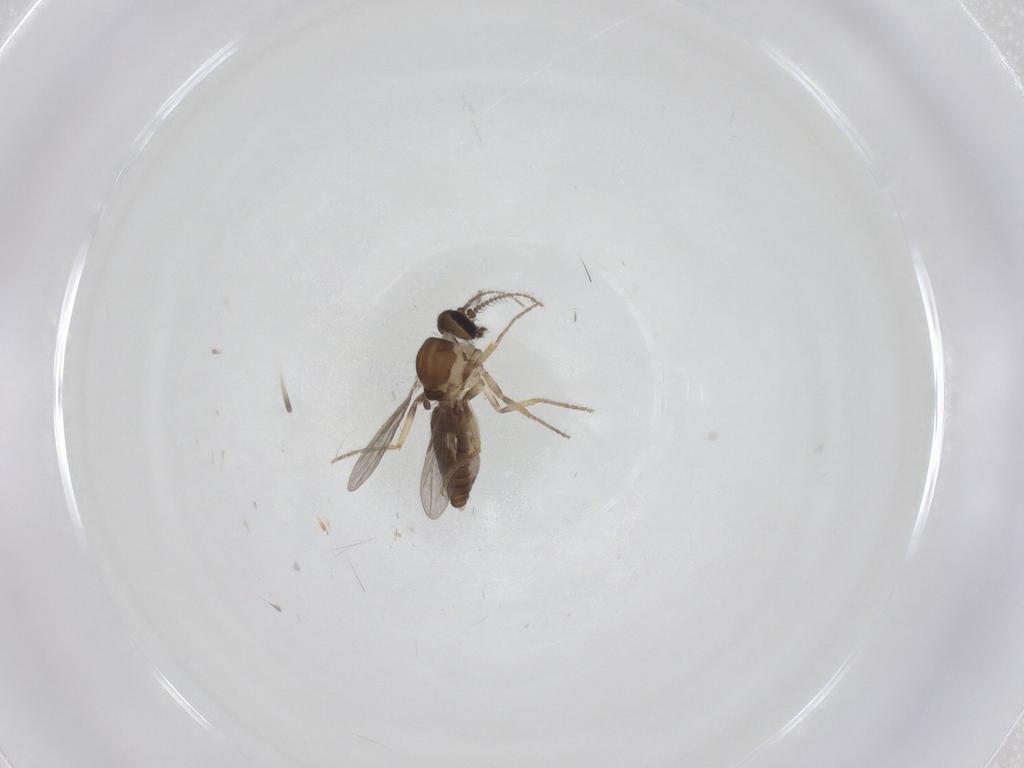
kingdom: Animalia
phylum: Arthropoda
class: Insecta
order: Diptera
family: Ceratopogonidae
